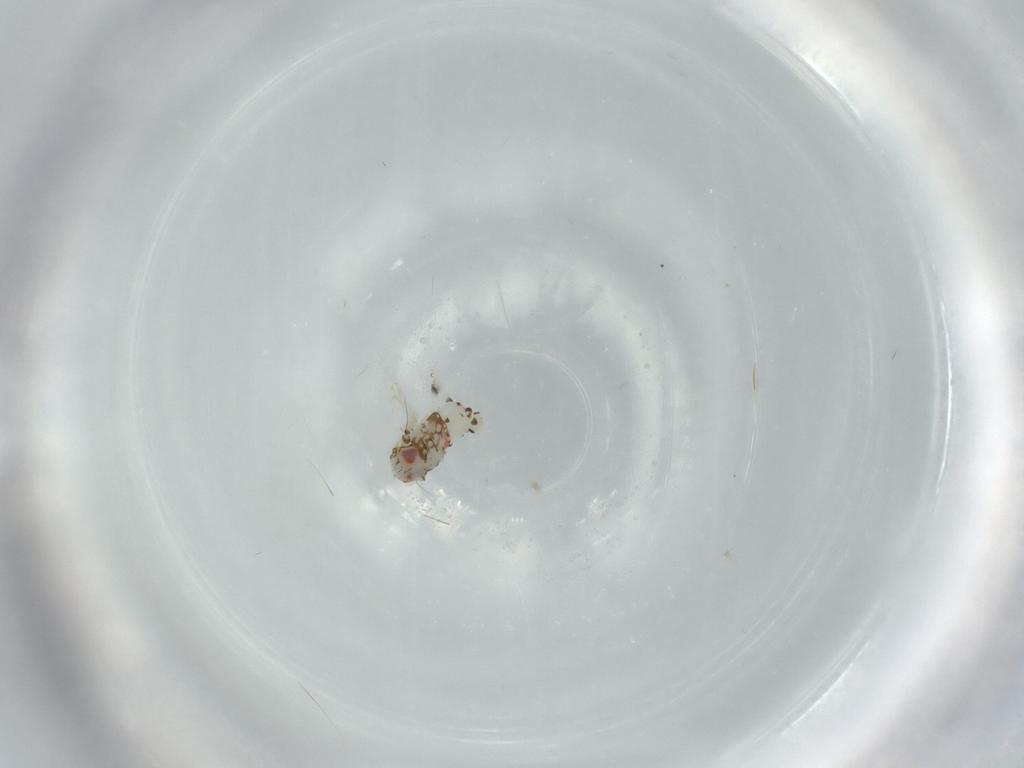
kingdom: Animalia
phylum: Arthropoda
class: Insecta
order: Hemiptera
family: Nogodinidae
